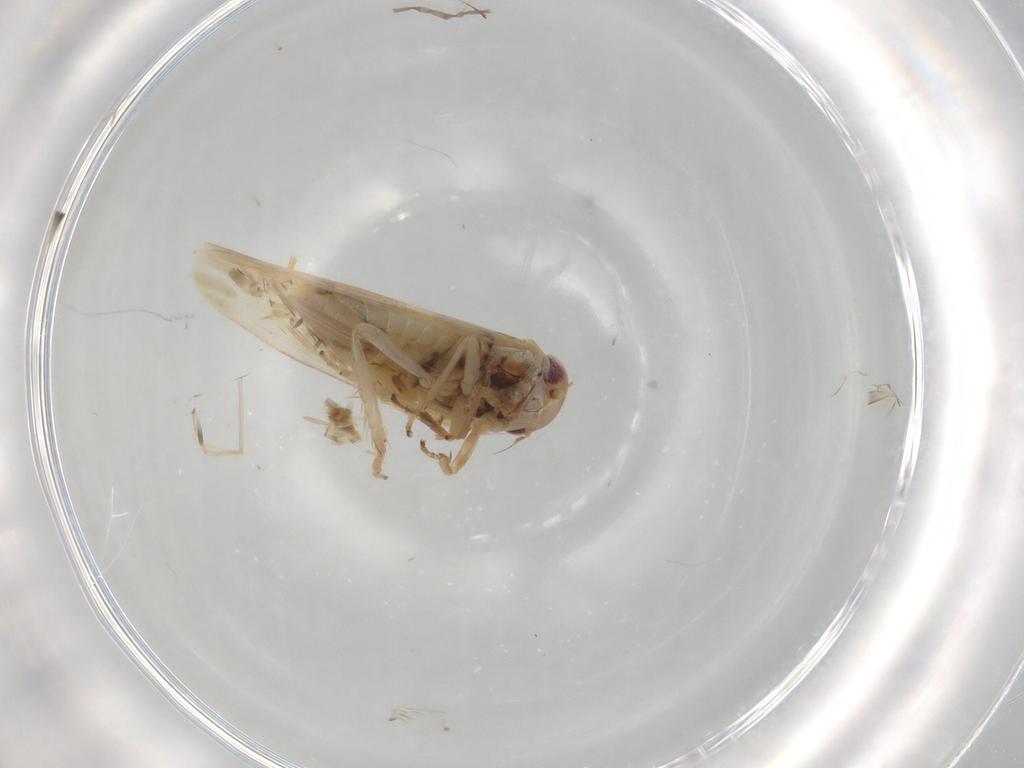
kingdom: Animalia
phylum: Arthropoda
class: Insecta
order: Hemiptera
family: Cicadellidae
